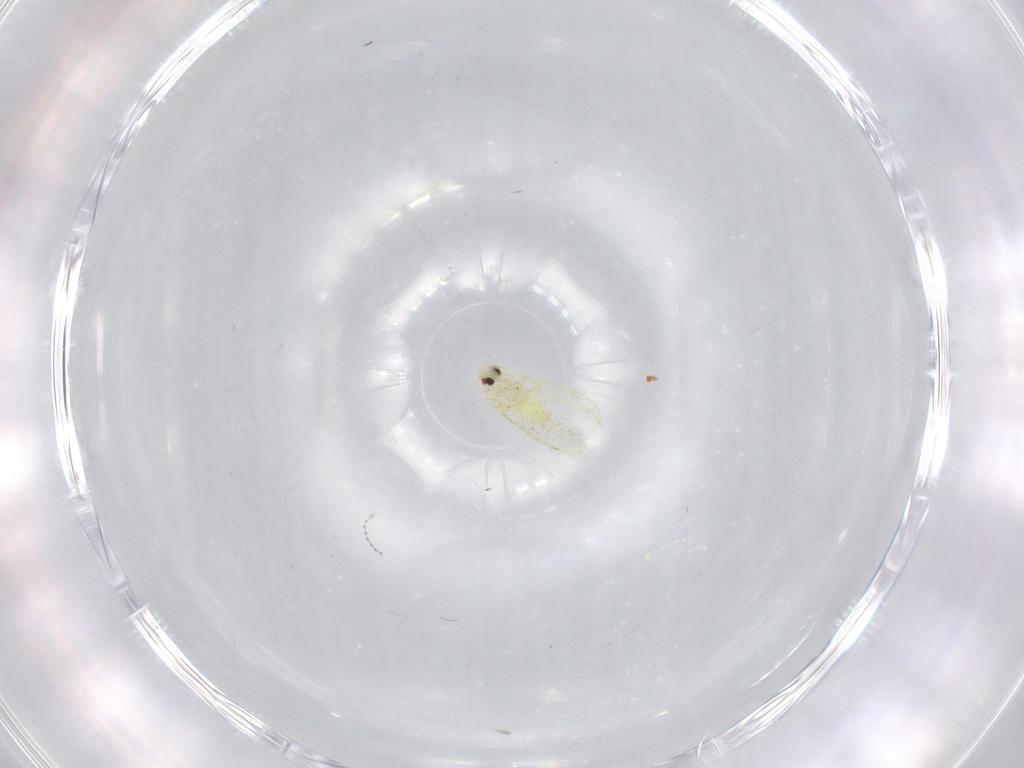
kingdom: Animalia
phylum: Arthropoda
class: Insecta
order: Diptera
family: Cecidomyiidae
